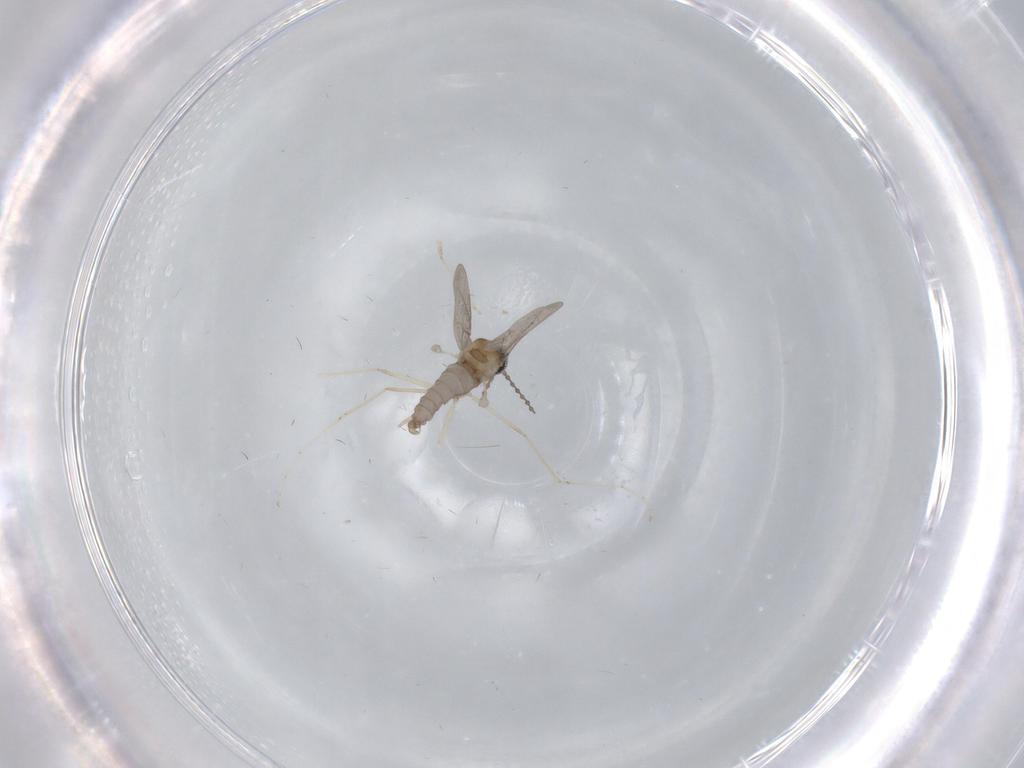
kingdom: Animalia
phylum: Arthropoda
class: Insecta
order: Diptera
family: Cecidomyiidae
